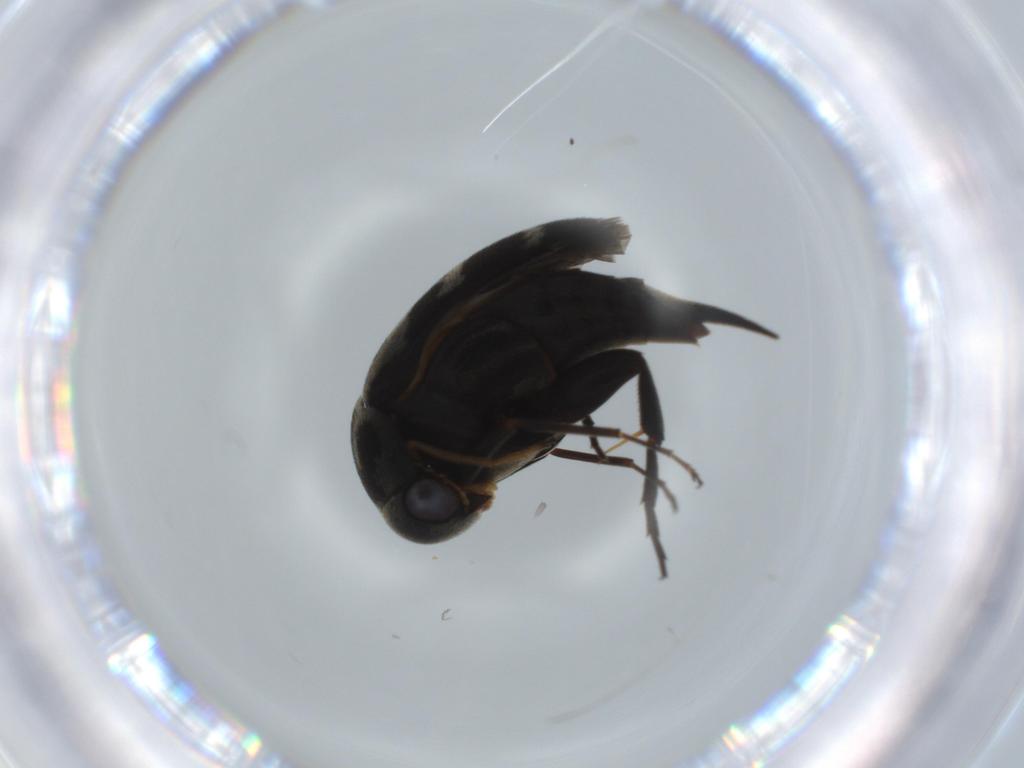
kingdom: Animalia
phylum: Arthropoda
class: Insecta
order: Coleoptera
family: Mordellidae
